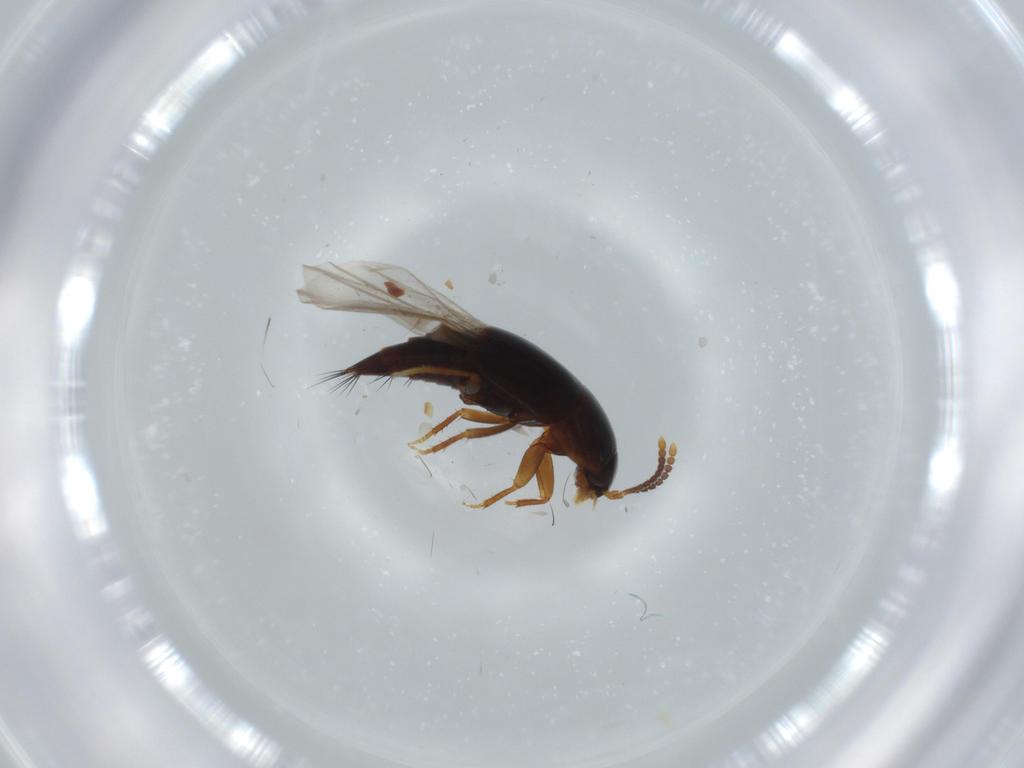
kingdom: Animalia
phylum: Arthropoda
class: Insecta
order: Coleoptera
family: Staphylinidae
